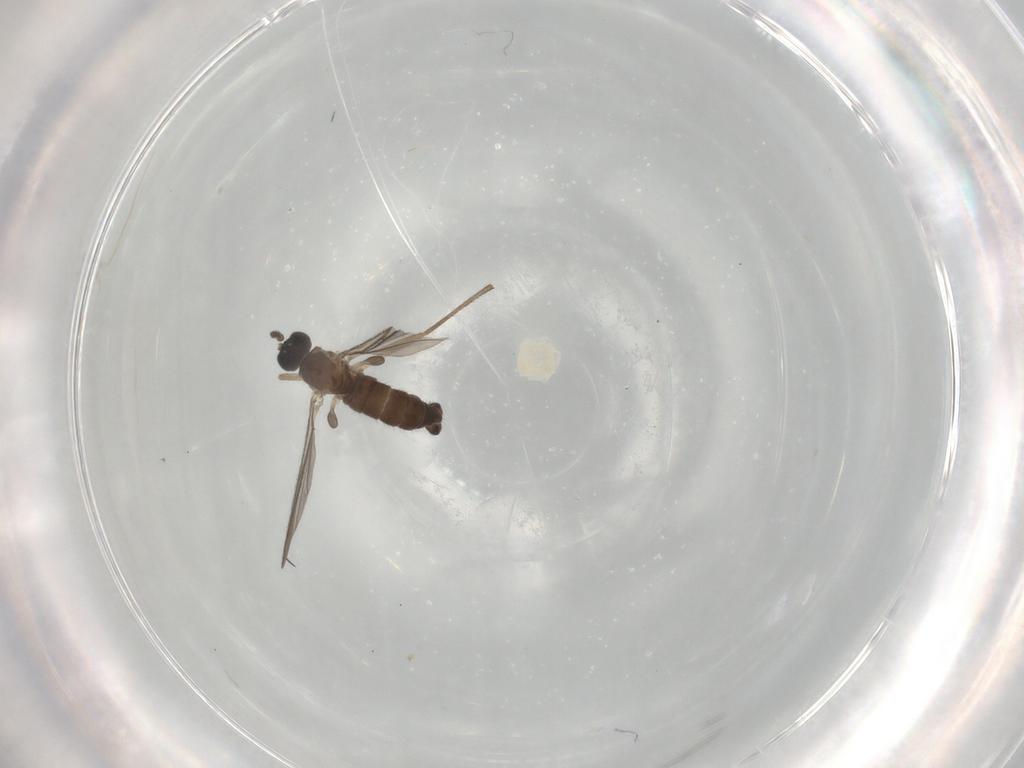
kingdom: Animalia
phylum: Arthropoda
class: Insecta
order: Diptera
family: Sciaridae
